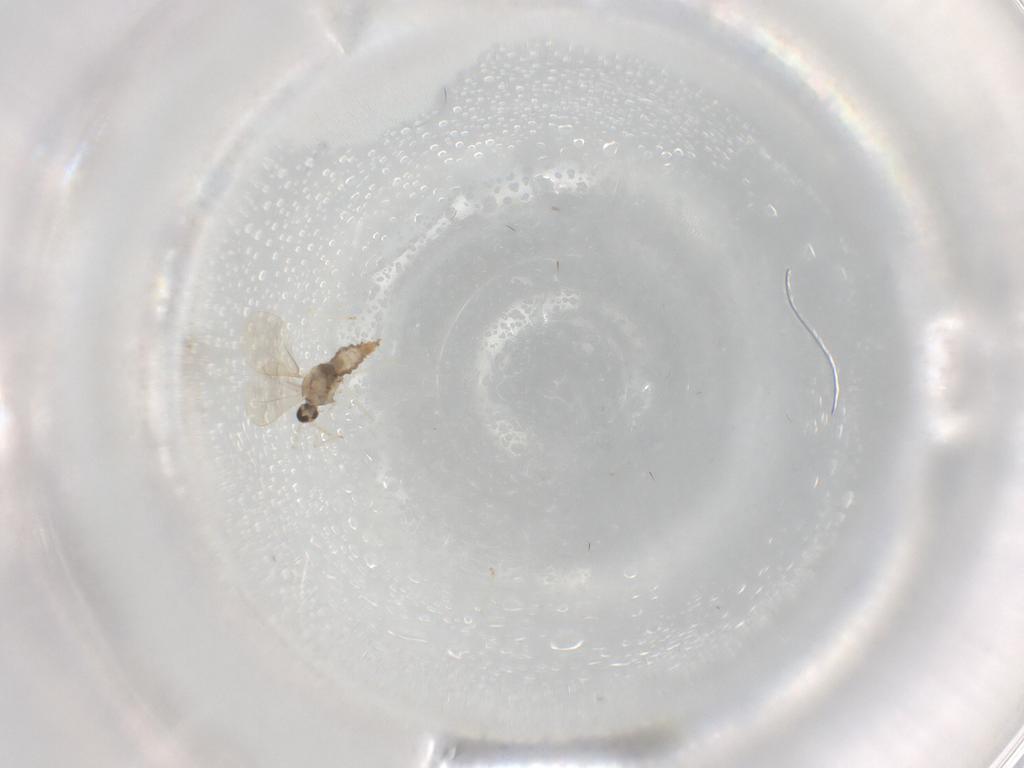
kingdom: Animalia
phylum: Arthropoda
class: Insecta
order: Diptera
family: Cecidomyiidae
